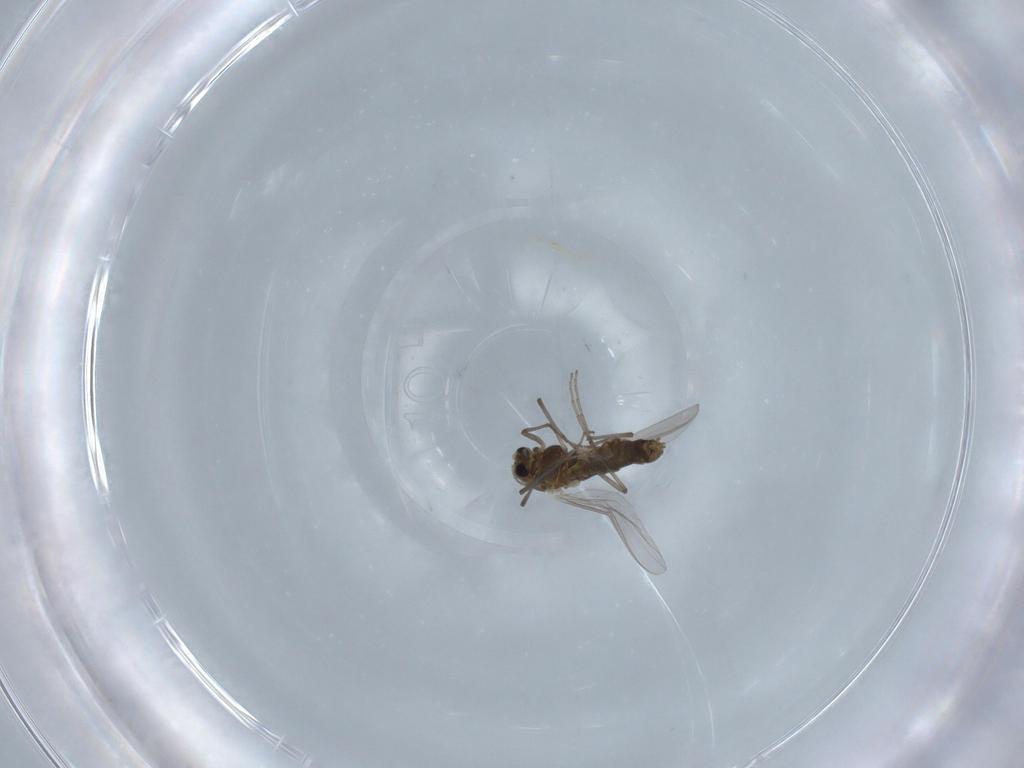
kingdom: Animalia
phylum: Arthropoda
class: Insecta
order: Diptera
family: Chironomidae
